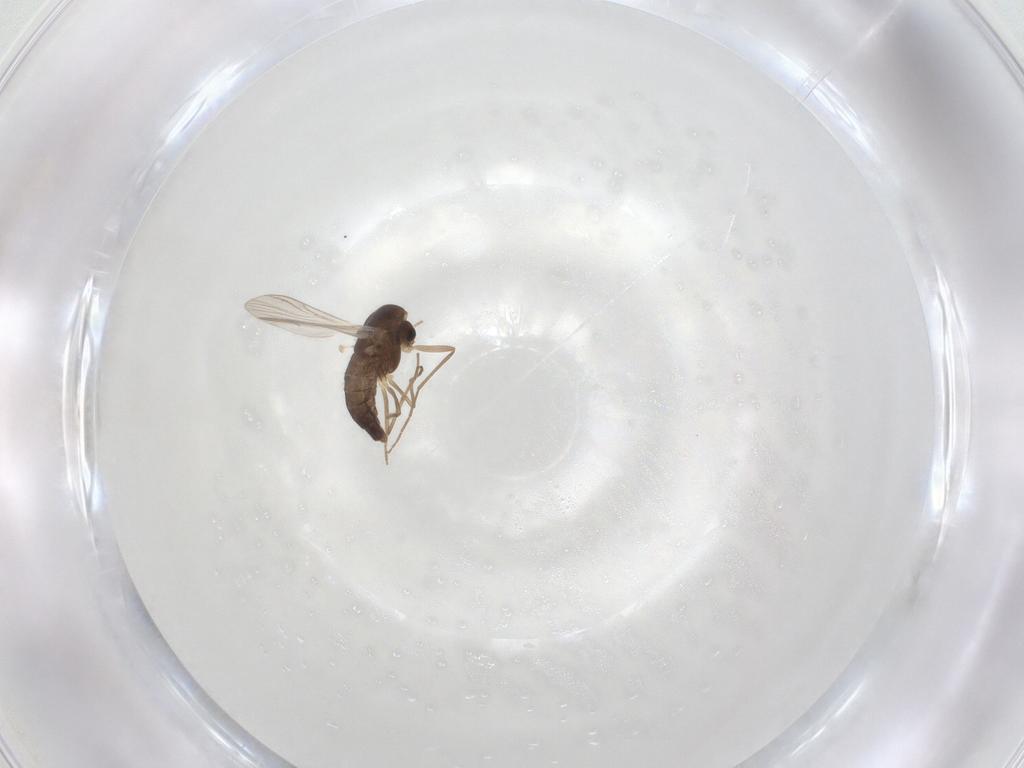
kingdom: Animalia
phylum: Arthropoda
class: Insecta
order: Diptera
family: Chironomidae
